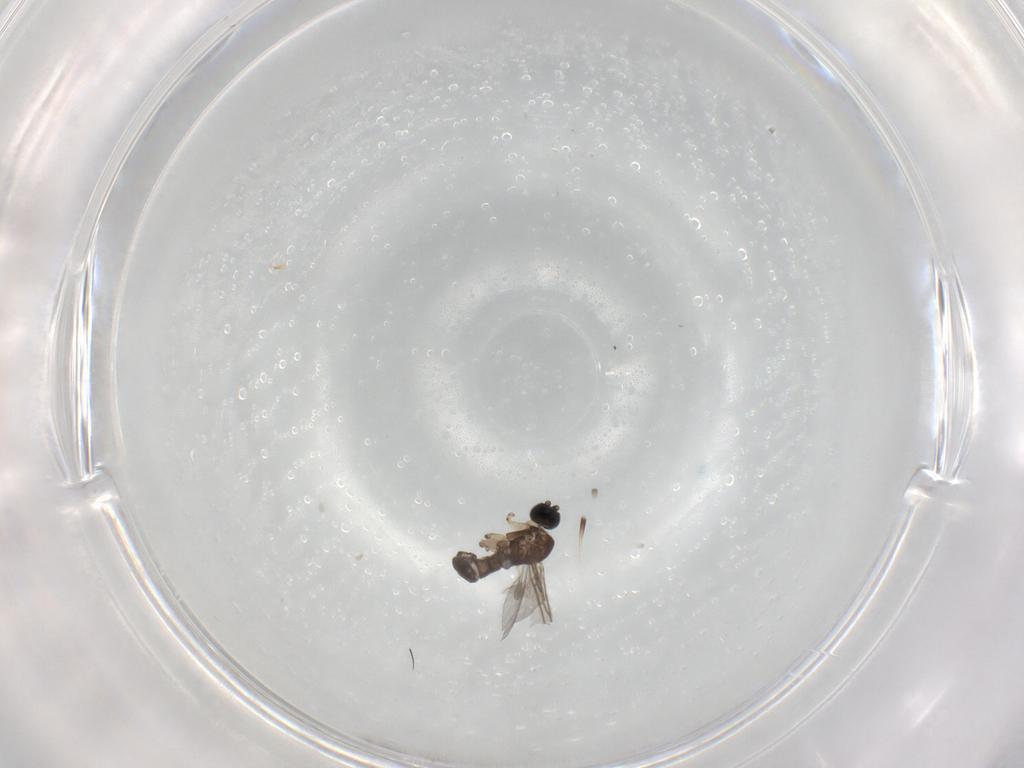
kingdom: Animalia
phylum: Arthropoda
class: Insecta
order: Diptera
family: Sciaridae
